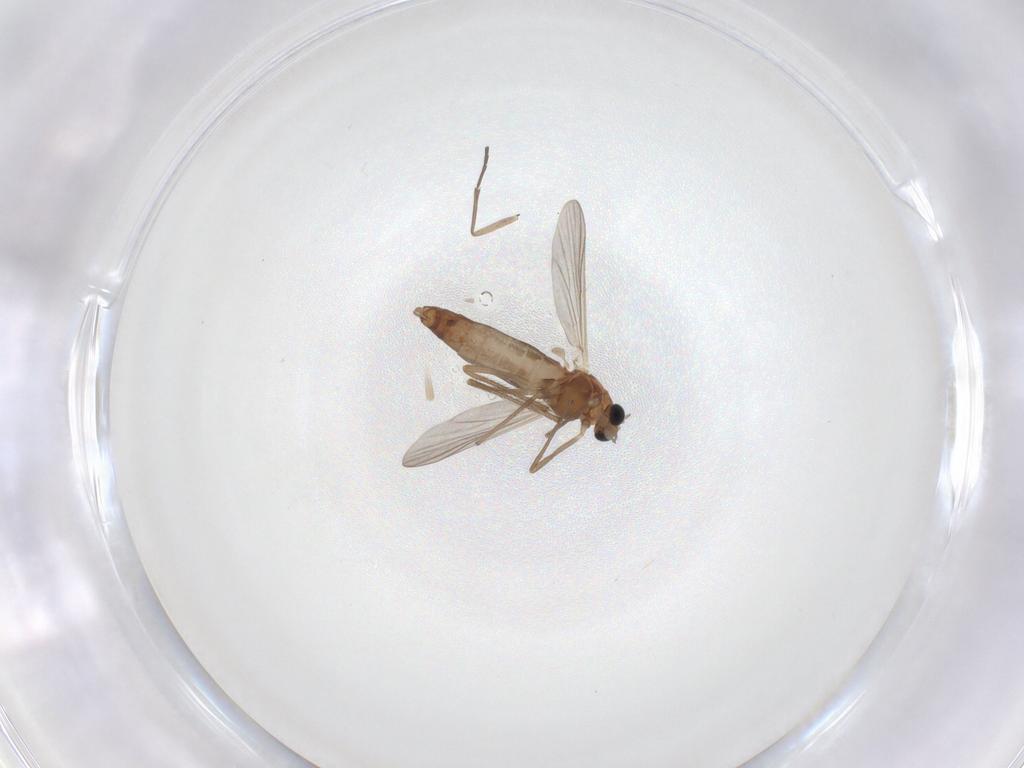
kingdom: Animalia
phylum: Arthropoda
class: Insecta
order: Diptera
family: Chironomidae
